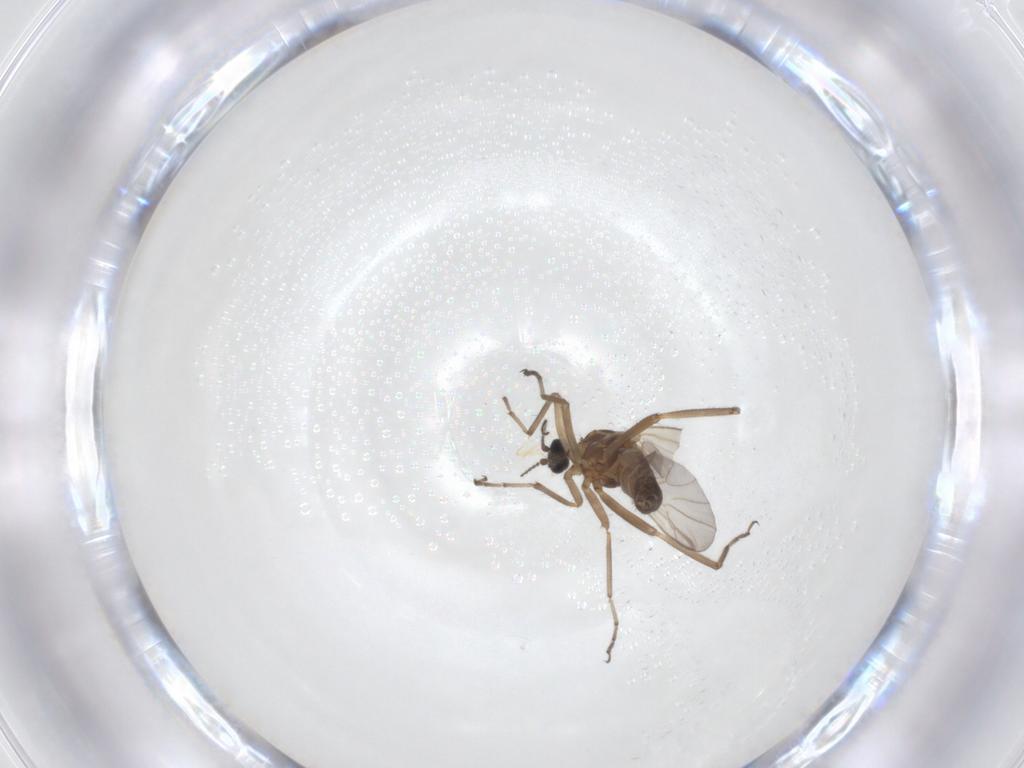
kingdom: Animalia
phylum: Arthropoda
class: Insecta
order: Diptera
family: Ceratopogonidae
